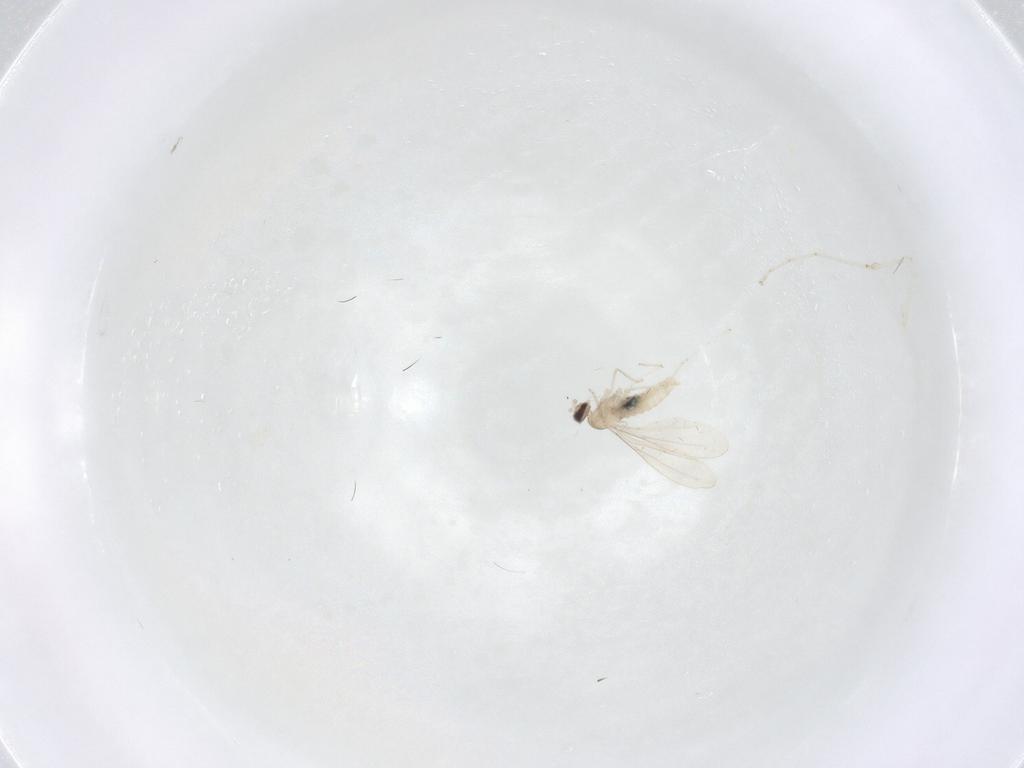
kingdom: Animalia
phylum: Arthropoda
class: Insecta
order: Diptera
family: Cecidomyiidae
